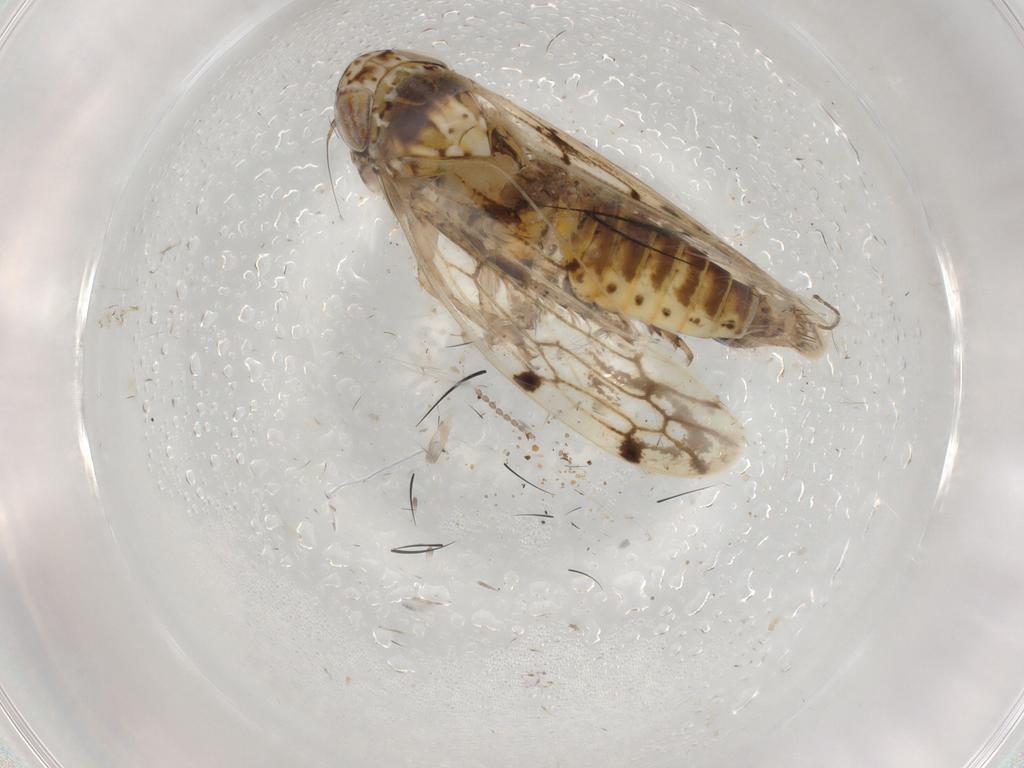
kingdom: Animalia
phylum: Arthropoda
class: Insecta
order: Hemiptera
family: Cicadellidae
